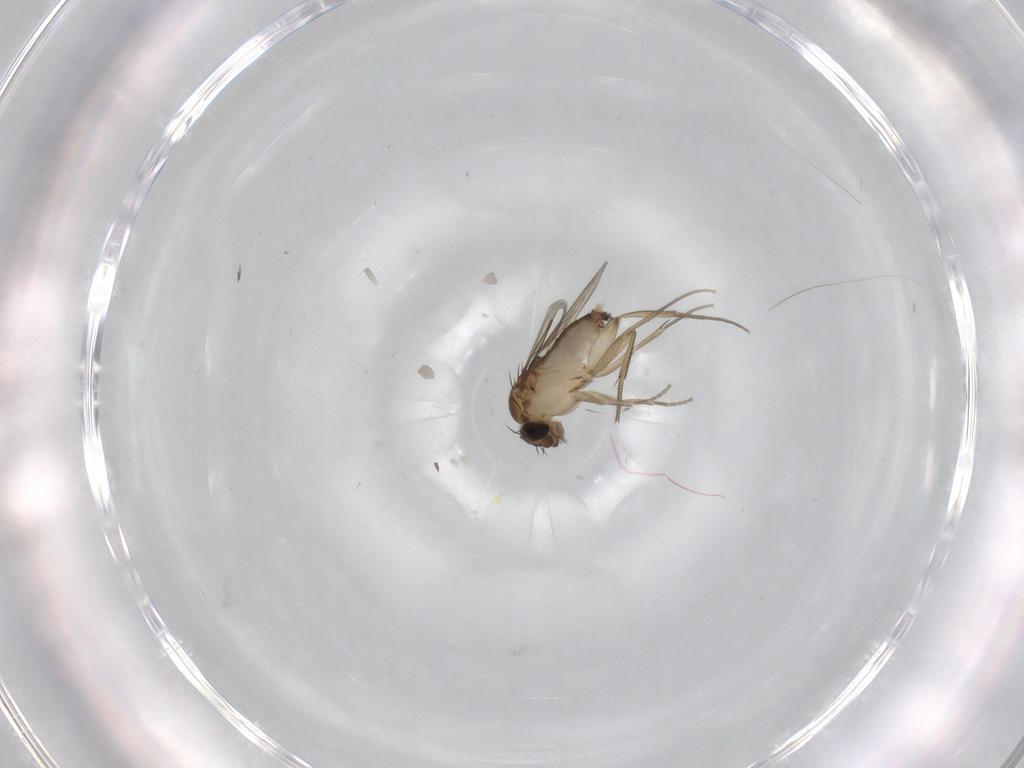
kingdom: Animalia
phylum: Arthropoda
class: Insecta
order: Diptera
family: Phoridae
